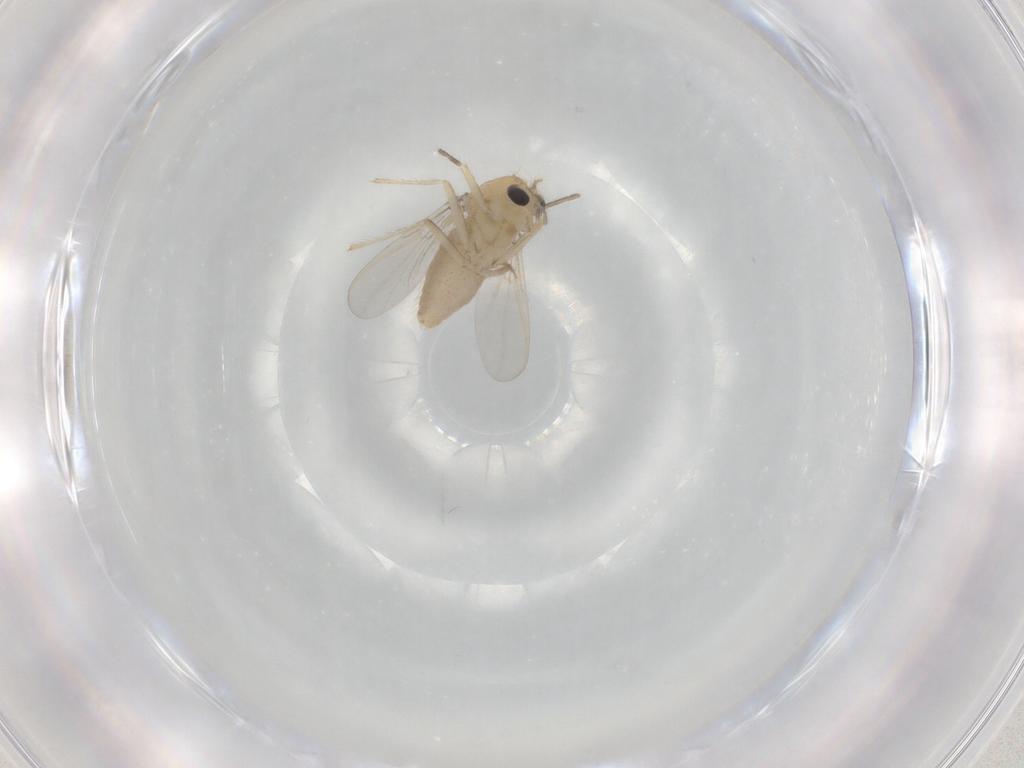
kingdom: Animalia
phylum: Arthropoda
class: Insecta
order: Diptera
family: Chironomidae
